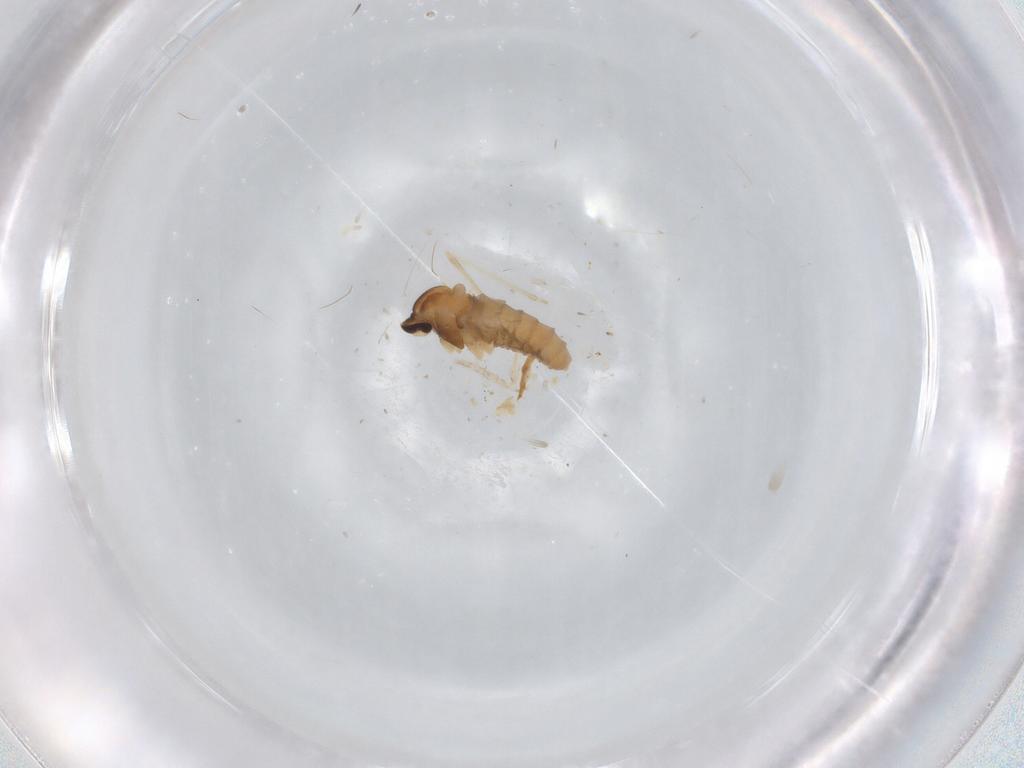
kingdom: Animalia
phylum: Arthropoda
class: Insecta
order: Diptera
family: Cecidomyiidae
